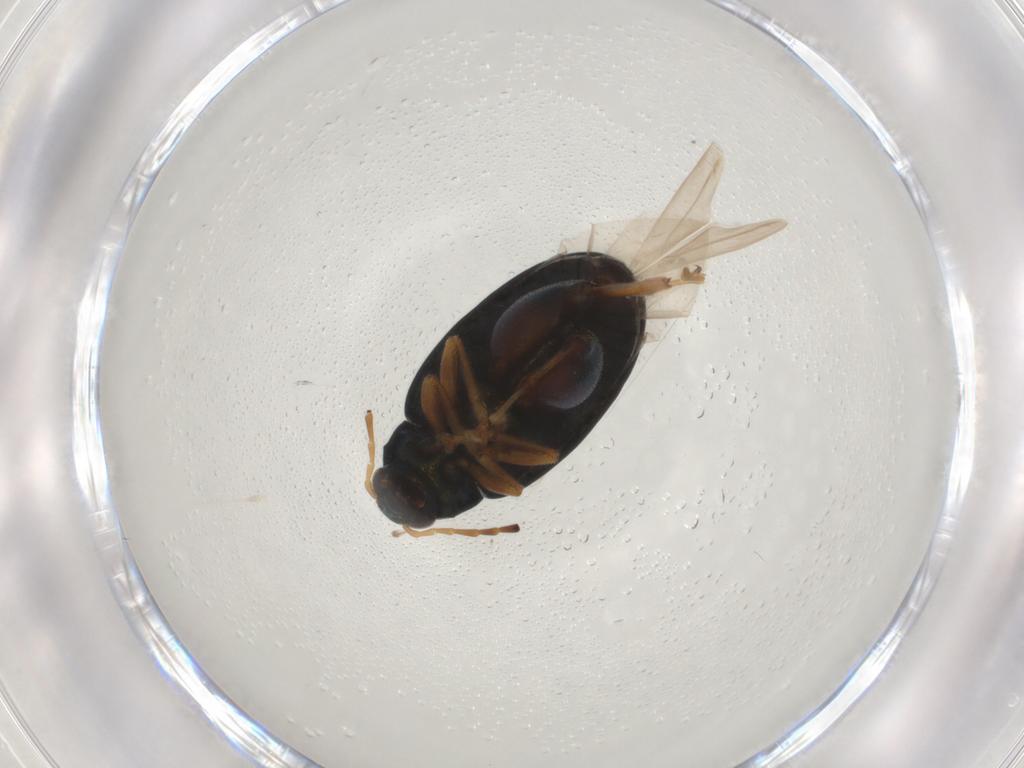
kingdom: Animalia
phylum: Arthropoda
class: Insecta
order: Coleoptera
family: Chrysomelidae
